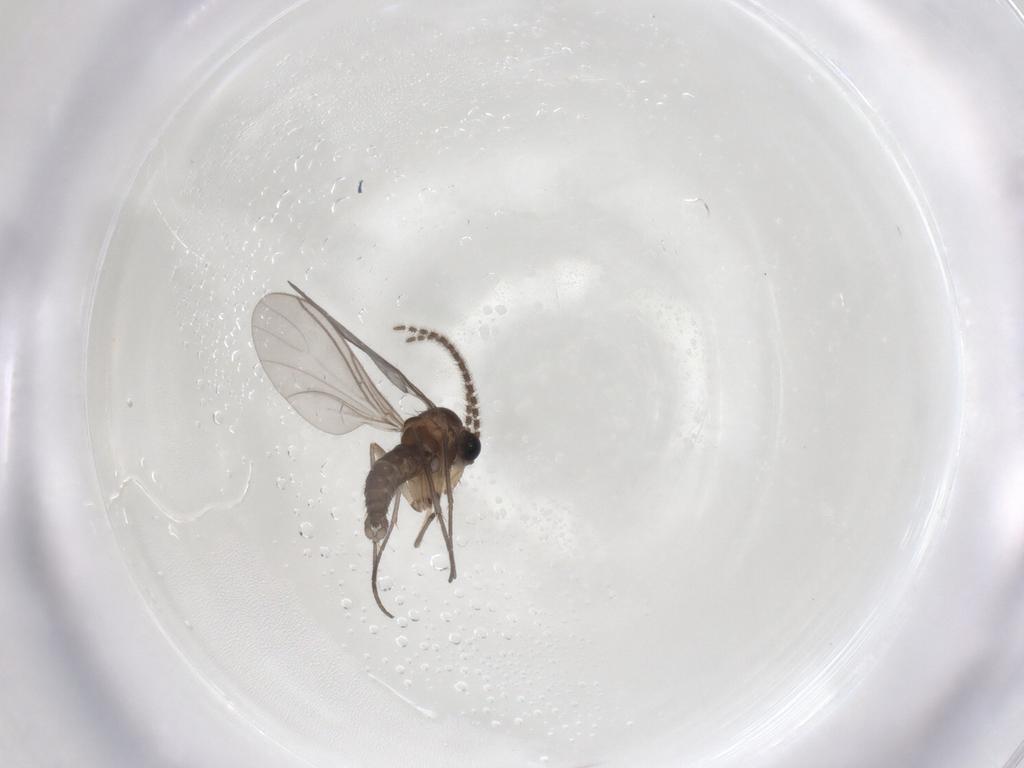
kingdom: Animalia
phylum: Arthropoda
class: Insecta
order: Diptera
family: Sciaridae
